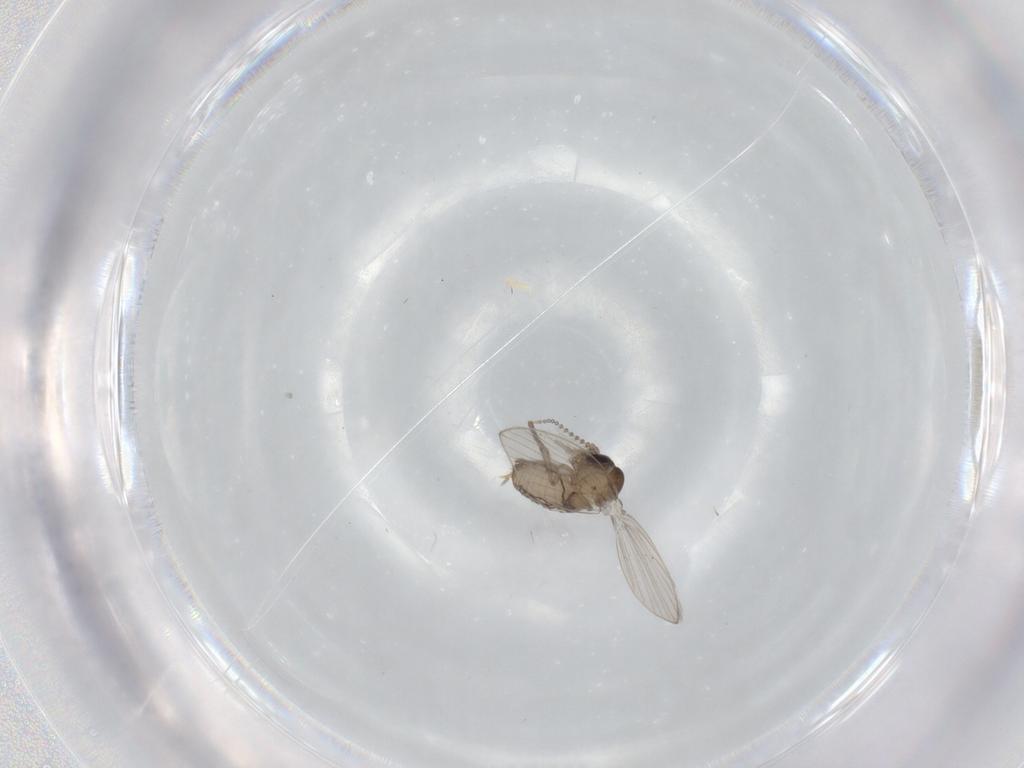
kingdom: Animalia
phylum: Arthropoda
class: Insecta
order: Diptera
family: Psychodidae
